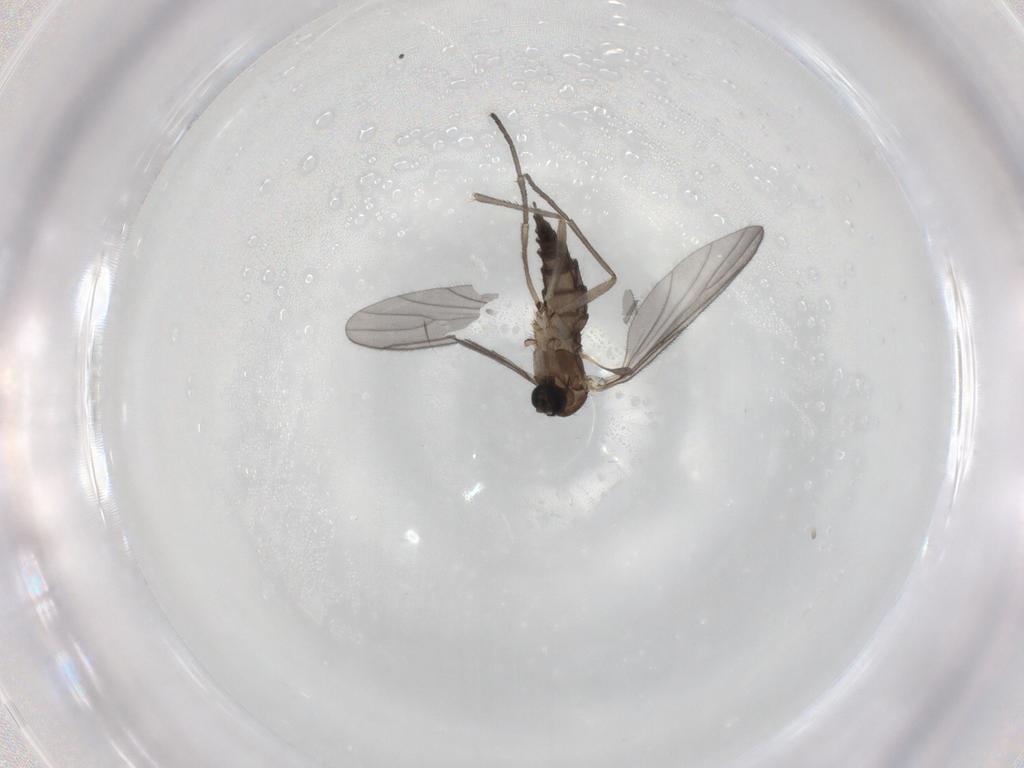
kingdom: Animalia
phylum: Arthropoda
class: Insecta
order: Diptera
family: Sciaridae
